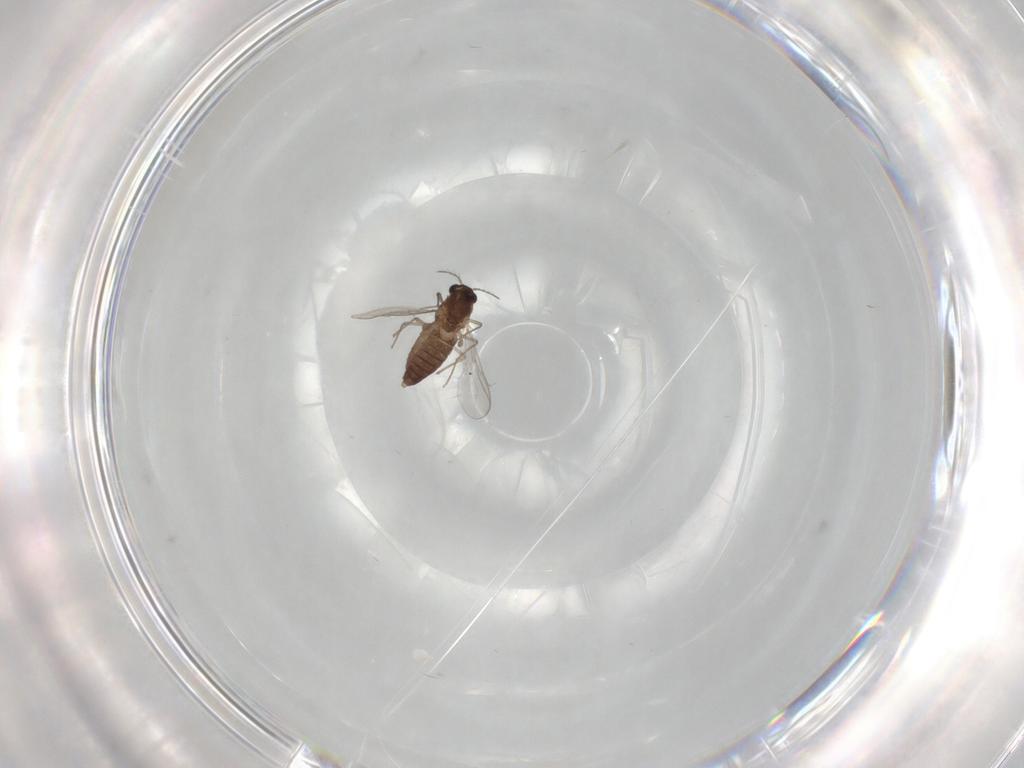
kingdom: Animalia
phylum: Arthropoda
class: Insecta
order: Diptera
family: Chironomidae
